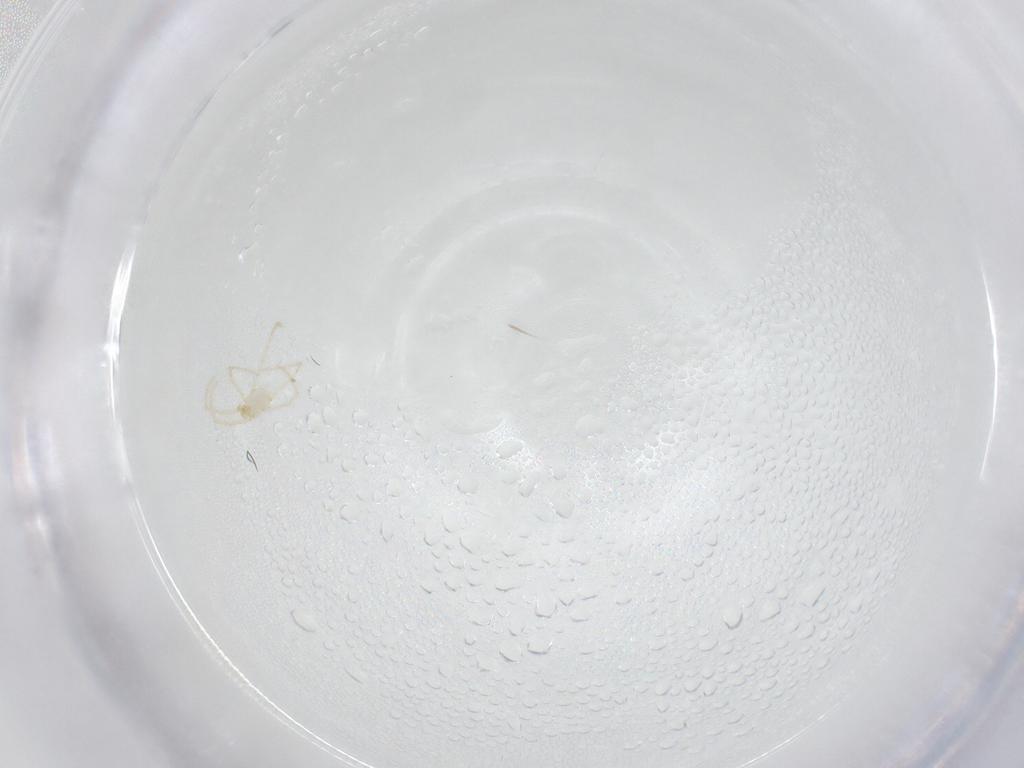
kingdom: Animalia
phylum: Arthropoda
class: Arachnida
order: Trombidiformes
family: Erythraeidae
